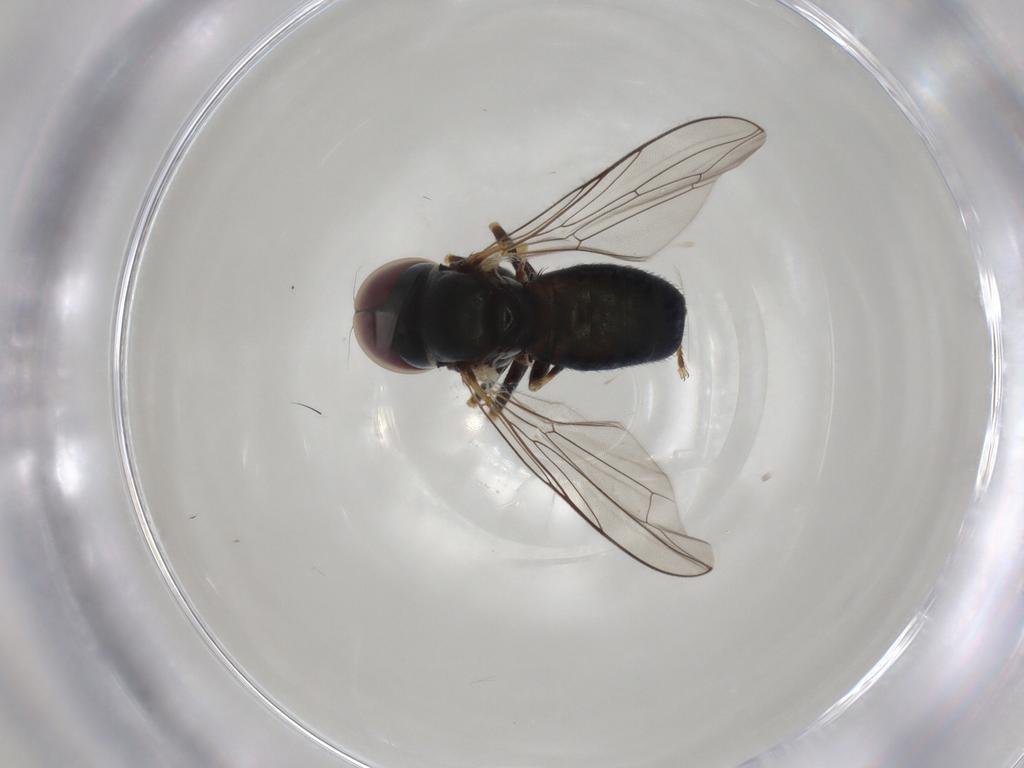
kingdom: Animalia
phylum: Arthropoda
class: Insecta
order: Diptera
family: Pipunculidae
